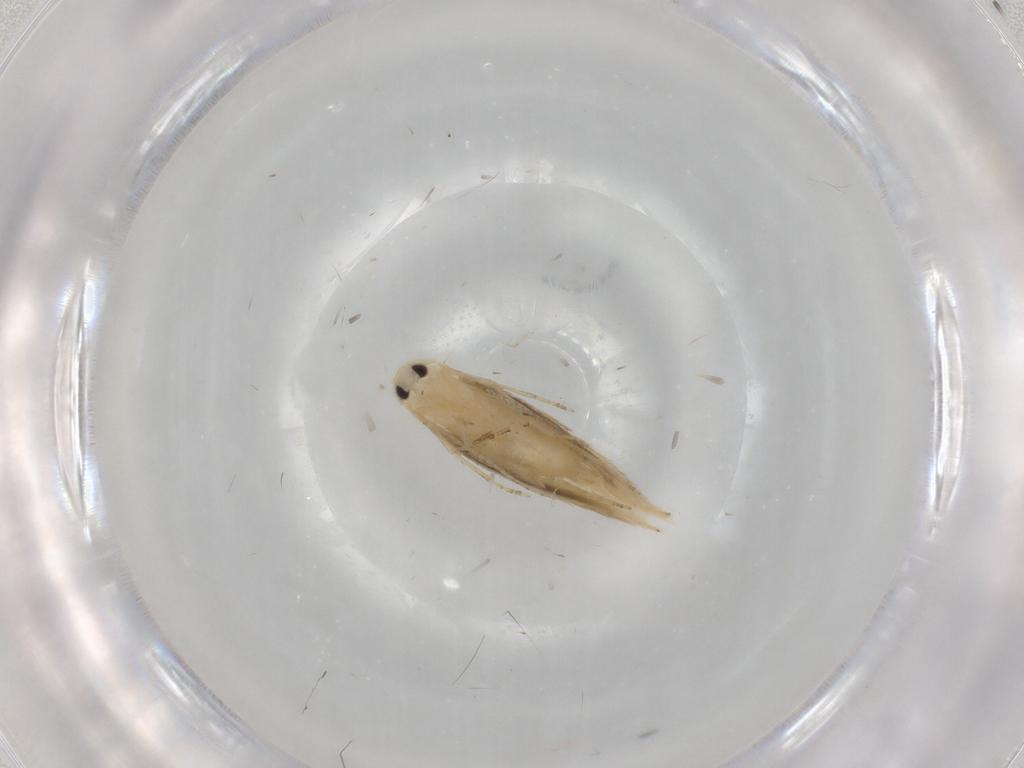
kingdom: Animalia
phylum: Arthropoda
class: Insecta
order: Lepidoptera
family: Bucculatricidae
